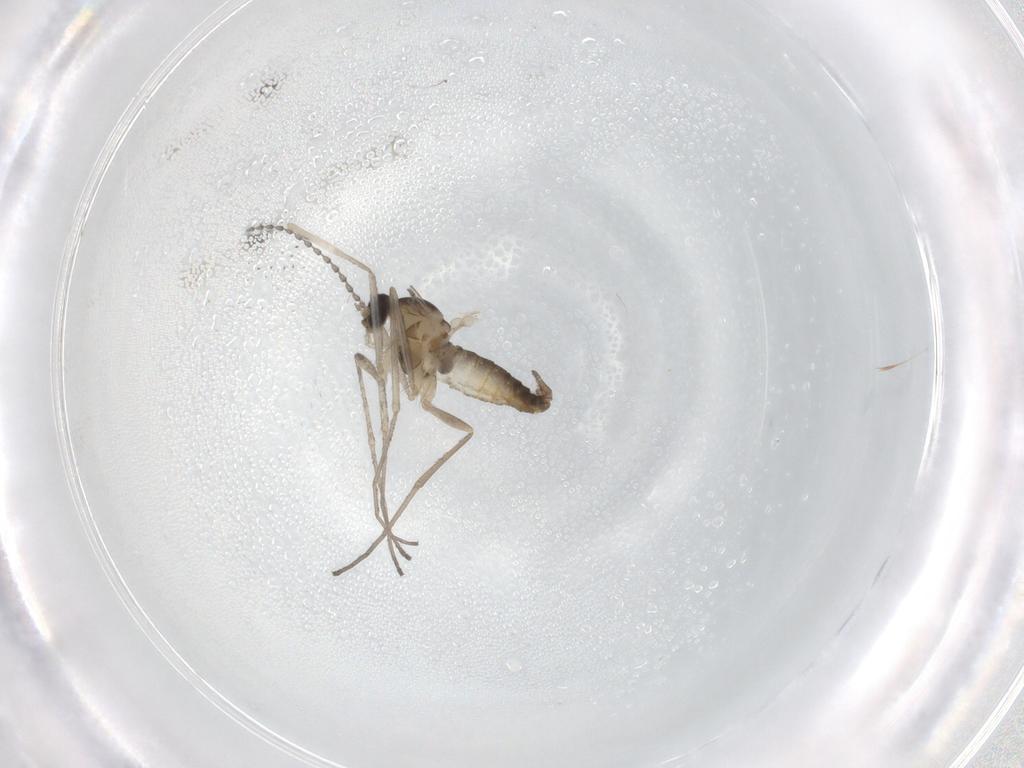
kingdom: Animalia
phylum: Arthropoda
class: Insecta
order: Diptera
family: Cecidomyiidae
